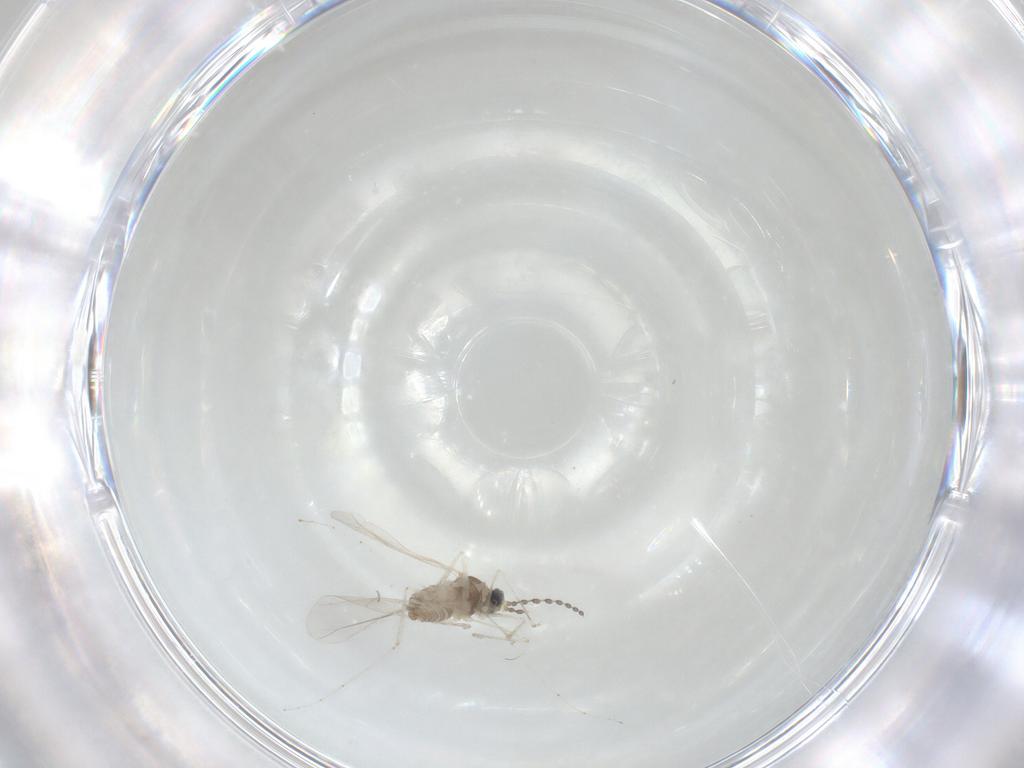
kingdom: Animalia
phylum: Arthropoda
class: Insecta
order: Diptera
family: Cecidomyiidae
